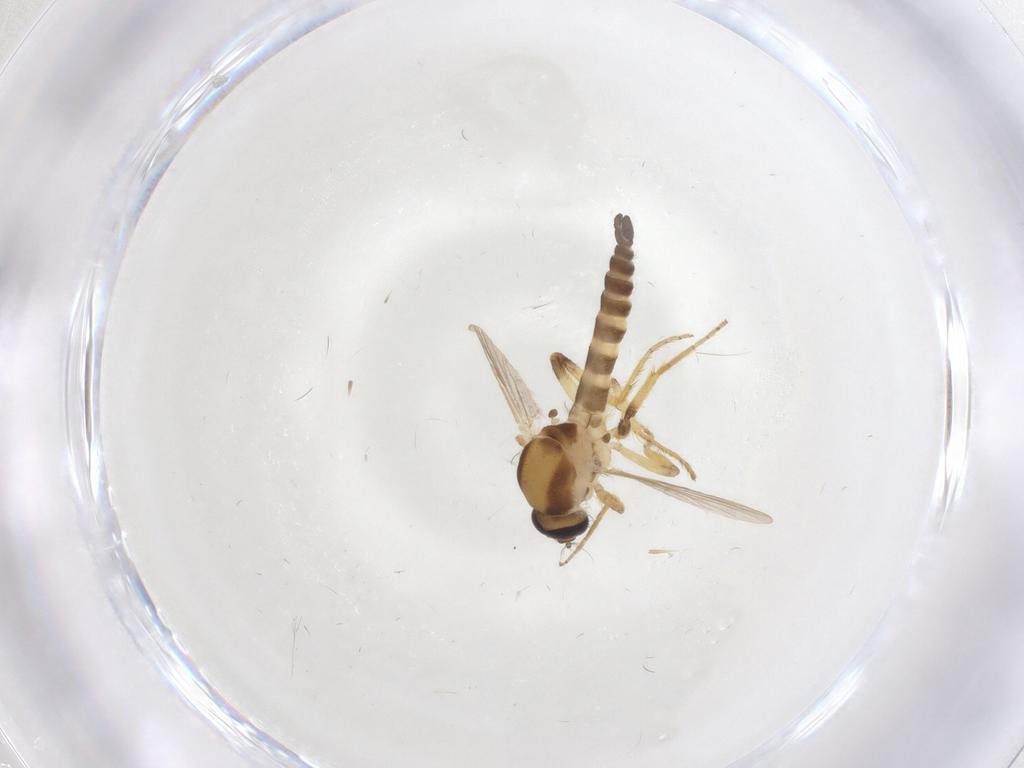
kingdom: Animalia
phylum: Arthropoda
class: Insecta
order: Diptera
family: Ceratopogonidae
